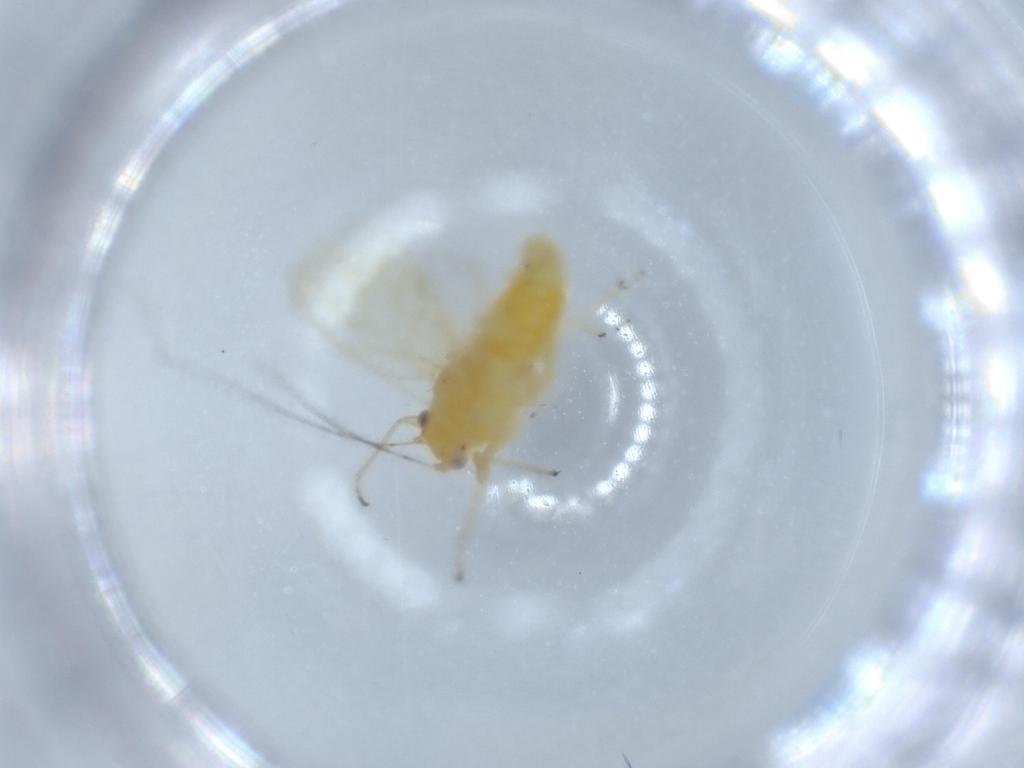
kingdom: Animalia
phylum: Arthropoda
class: Insecta
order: Hemiptera
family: Psyllidae
